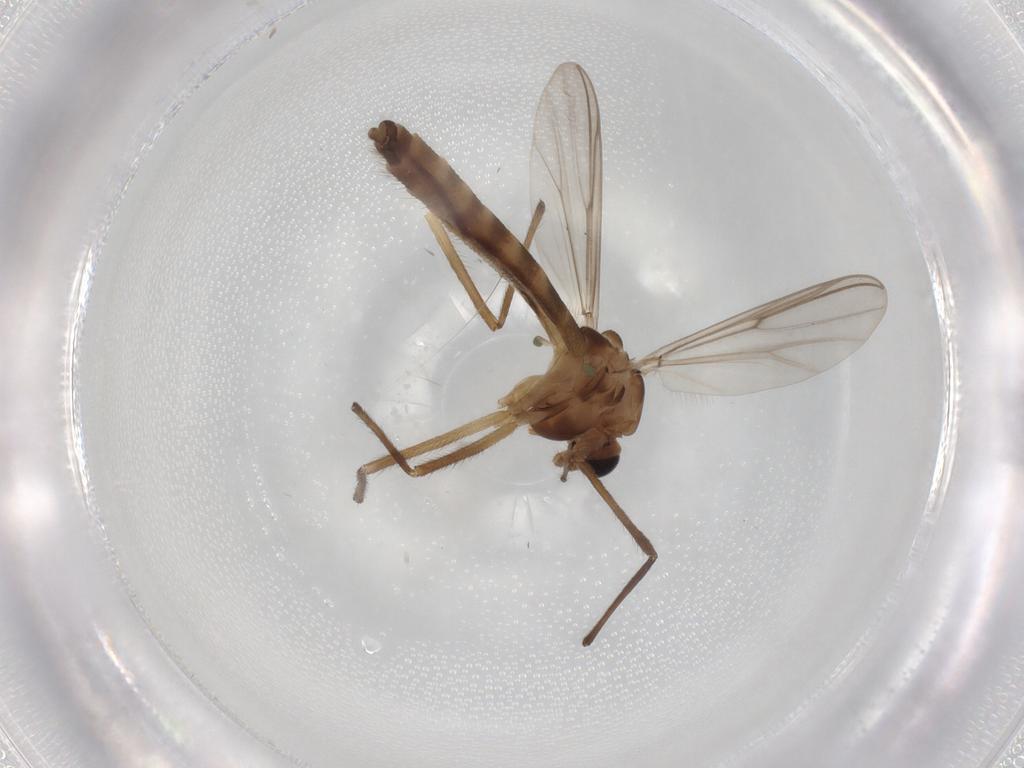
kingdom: Animalia
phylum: Arthropoda
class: Insecta
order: Diptera
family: Chironomidae
